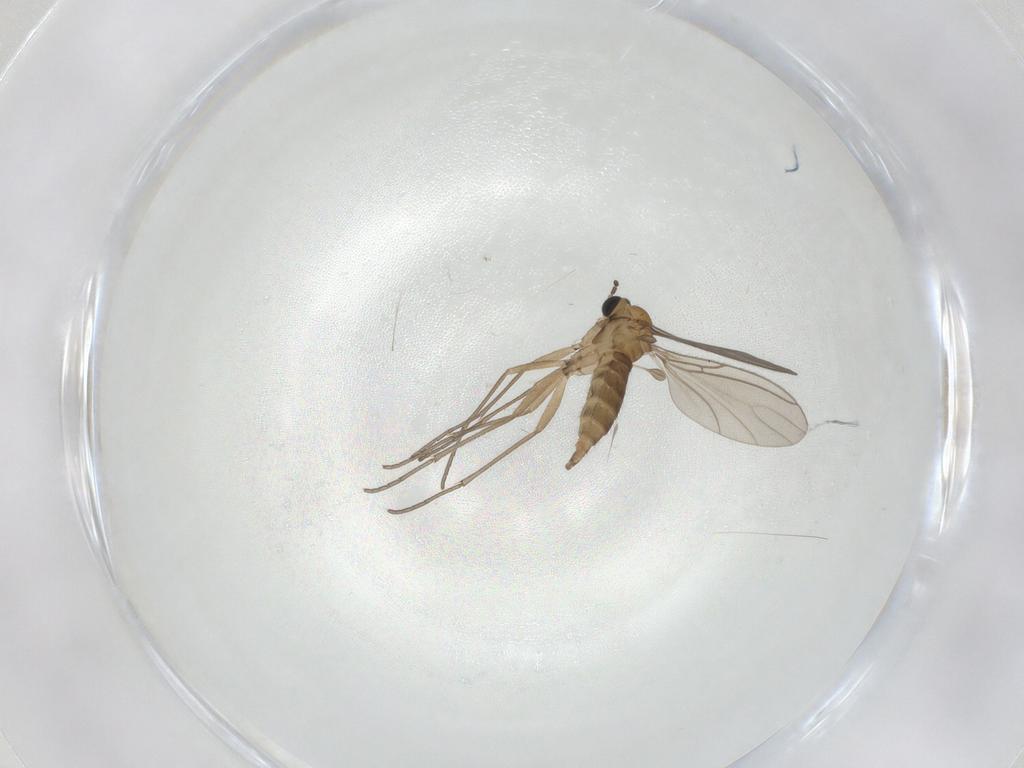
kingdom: Animalia
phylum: Arthropoda
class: Insecta
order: Diptera
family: Sciaridae
